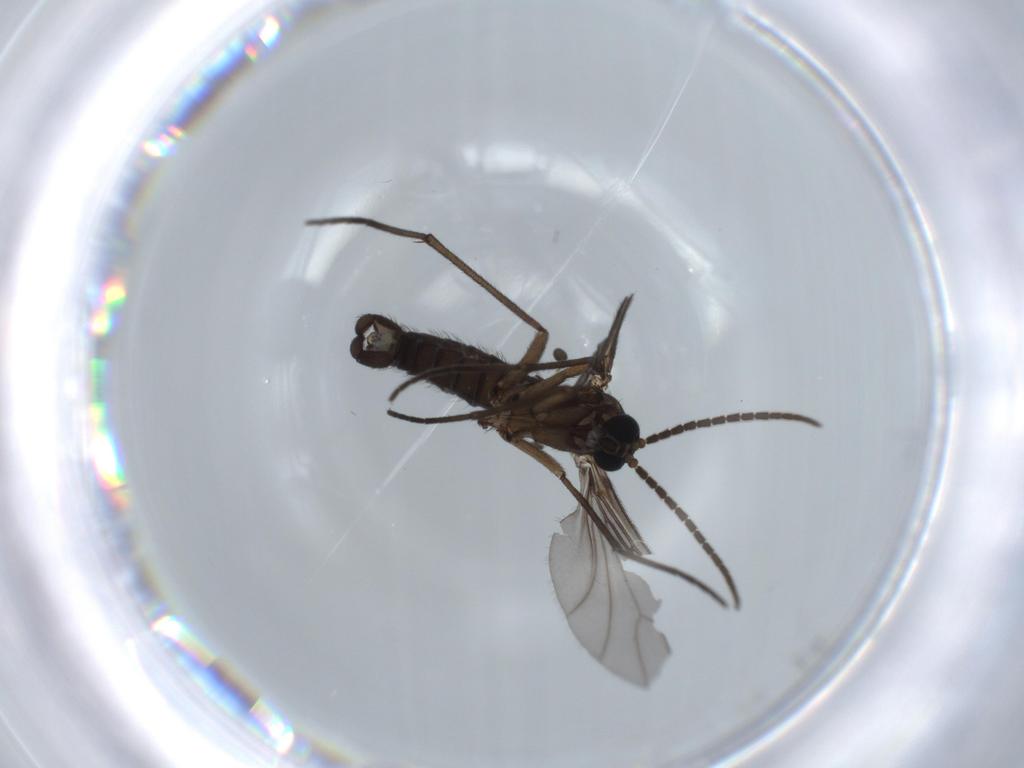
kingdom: Animalia
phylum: Arthropoda
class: Insecta
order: Diptera
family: Sciaridae
